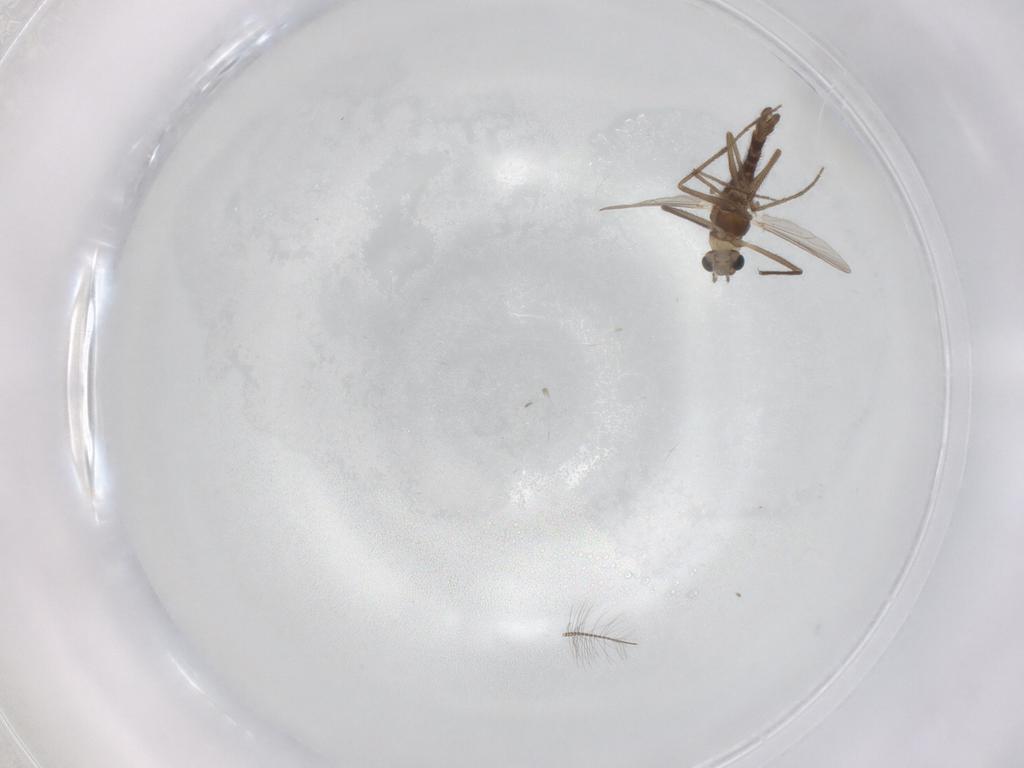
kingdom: Animalia
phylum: Arthropoda
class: Insecta
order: Diptera
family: Chironomidae
